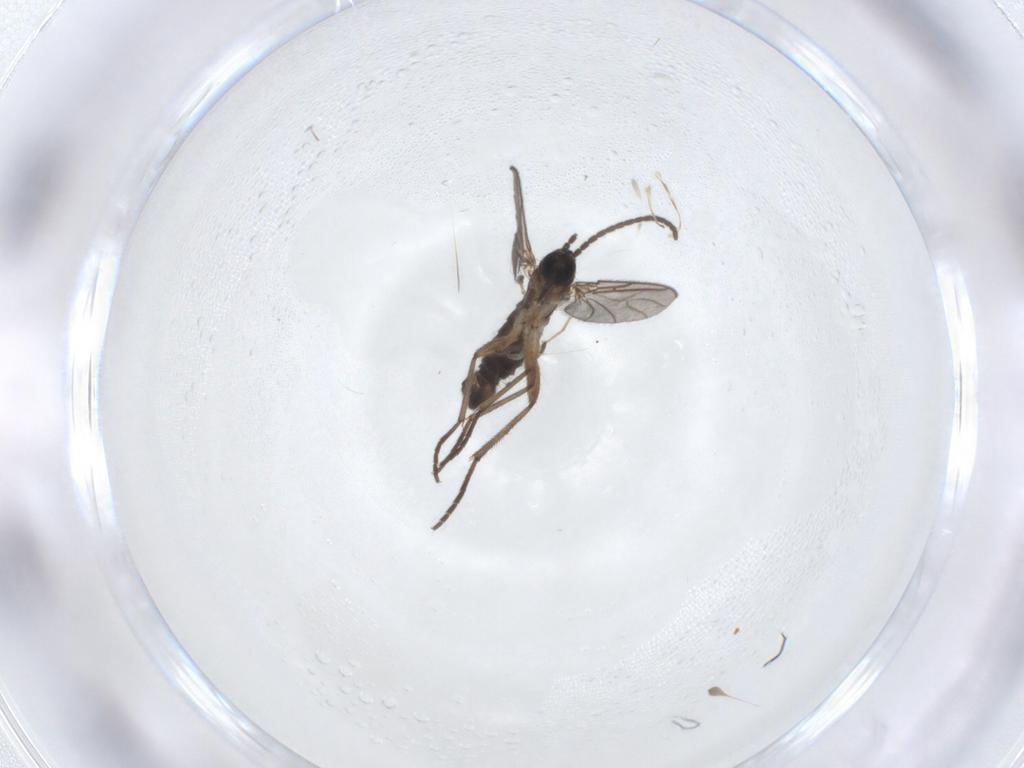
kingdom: Animalia
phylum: Arthropoda
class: Insecta
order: Diptera
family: Sciaridae
